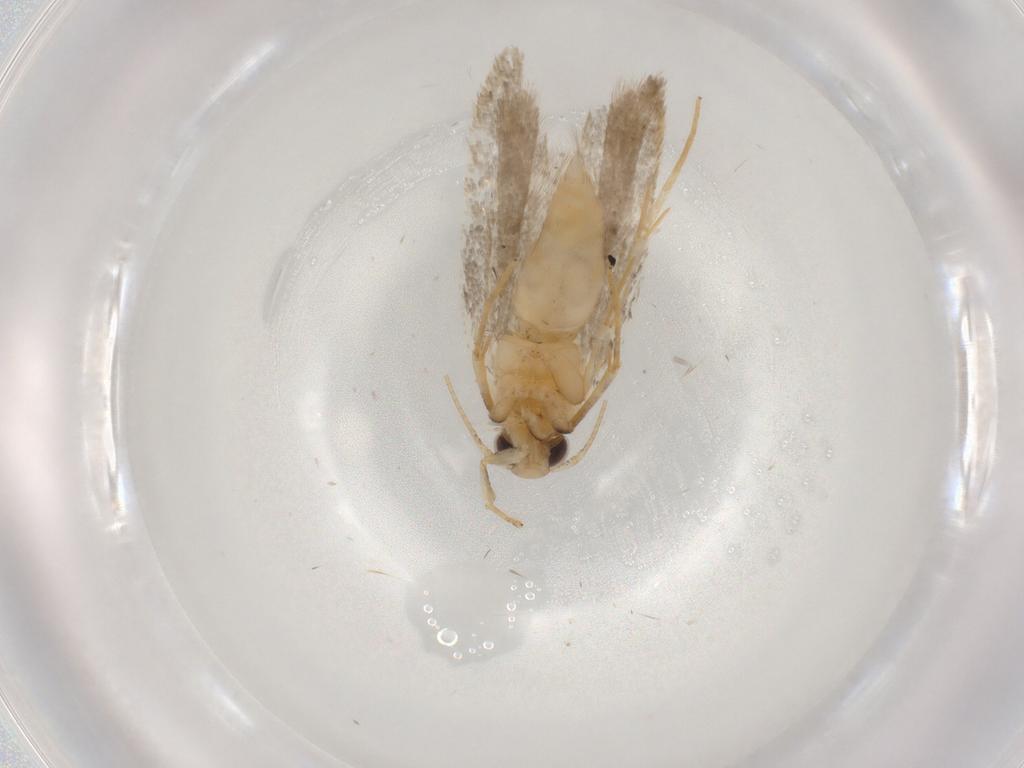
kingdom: Animalia
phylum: Arthropoda
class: Insecta
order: Lepidoptera
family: Autostichidae
